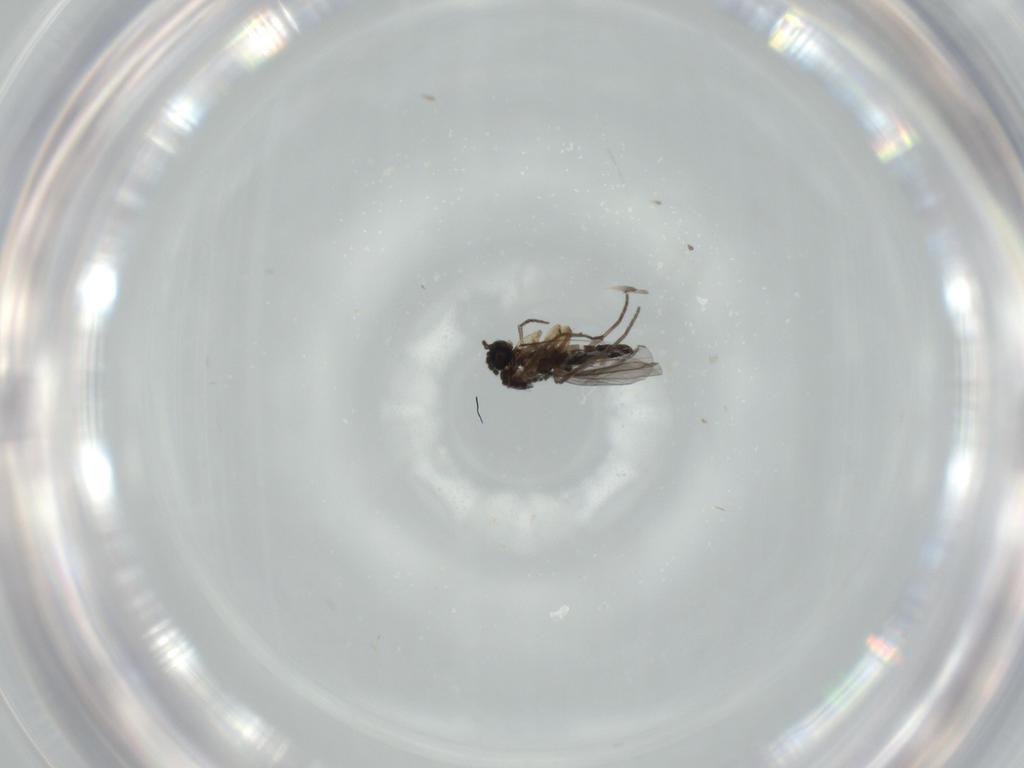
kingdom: Animalia
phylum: Arthropoda
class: Insecta
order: Diptera
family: Sciaridae
